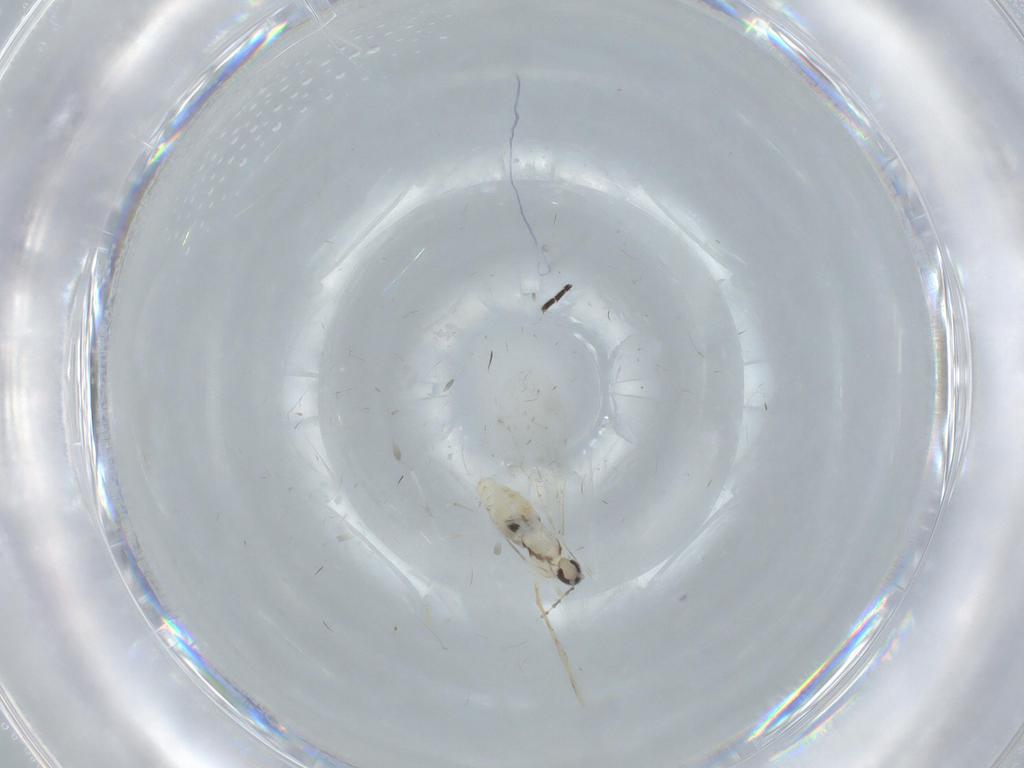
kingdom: Animalia
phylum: Arthropoda
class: Insecta
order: Diptera
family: Cecidomyiidae
